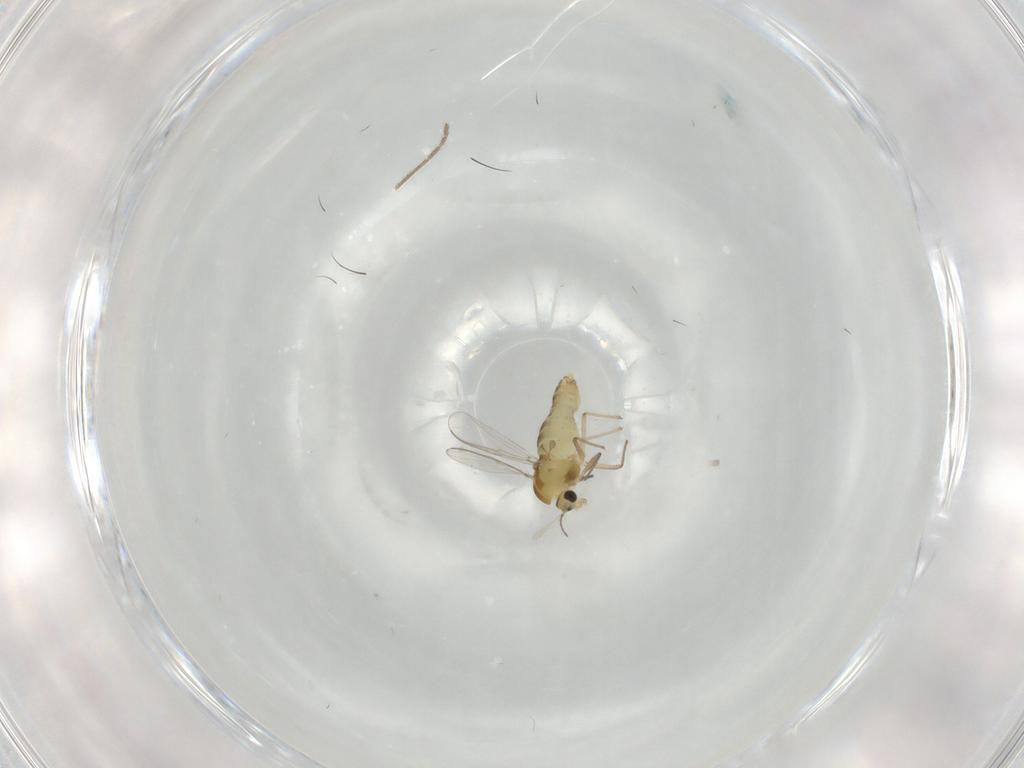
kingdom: Animalia
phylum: Arthropoda
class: Insecta
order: Diptera
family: Chironomidae
